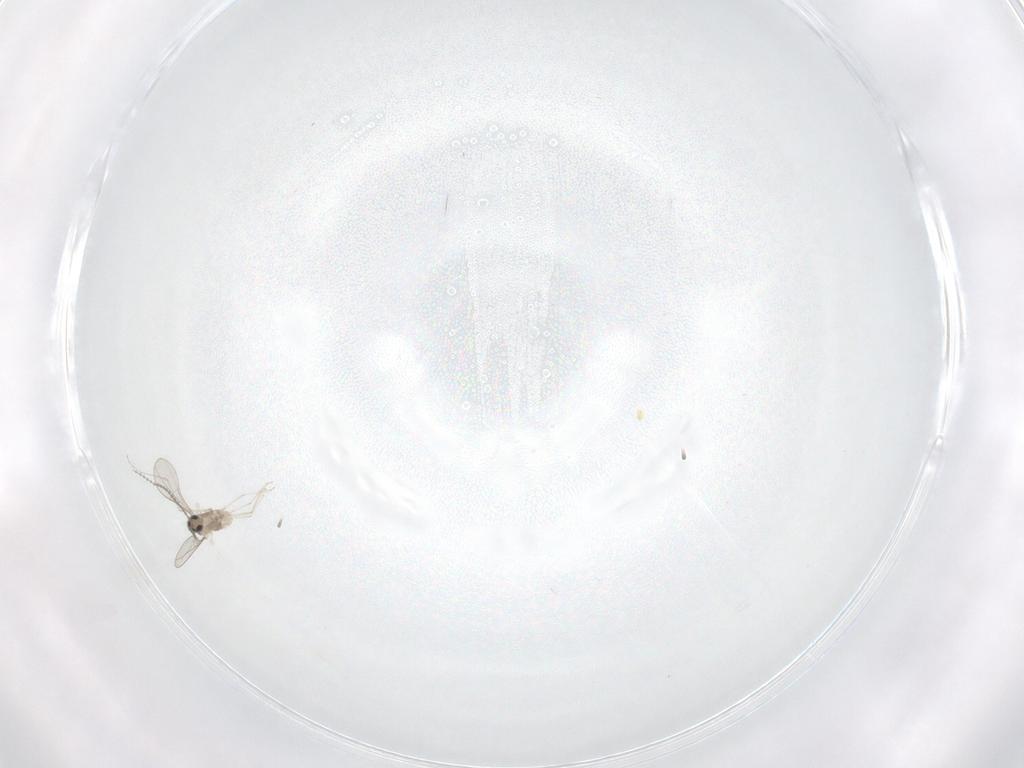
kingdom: Animalia
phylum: Arthropoda
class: Insecta
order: Diptera
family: Cecidomyiidae
